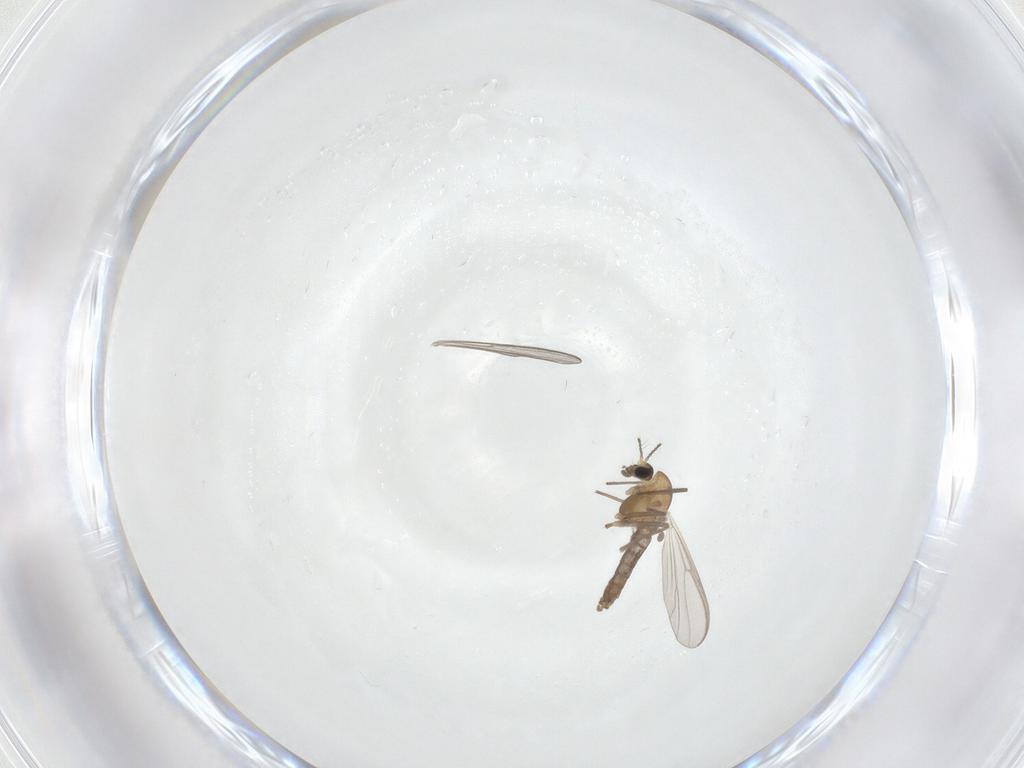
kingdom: Animalia
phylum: Arthropoda
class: Insecta
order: Diptera
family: Chironomidae
